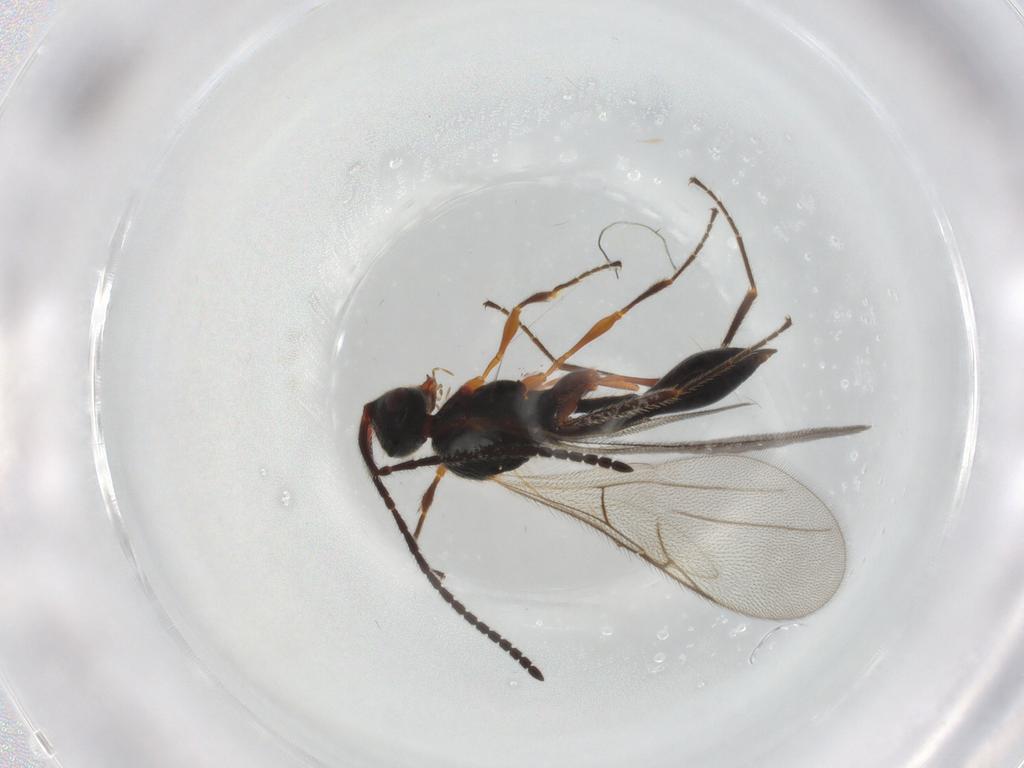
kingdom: Animalia
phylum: Arthropoda
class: Insecta
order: Hymenoptera
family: Diapriidae
